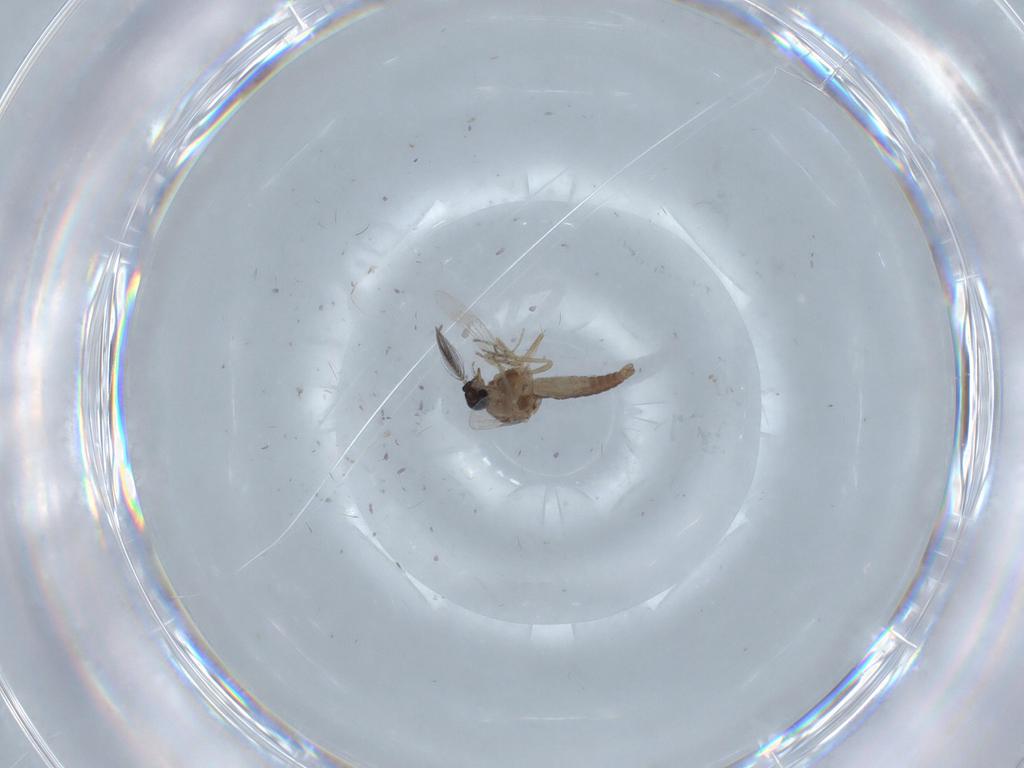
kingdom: Animalia
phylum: Arthropoda
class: Insecta
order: Diptera
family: Ceratopogonidae
